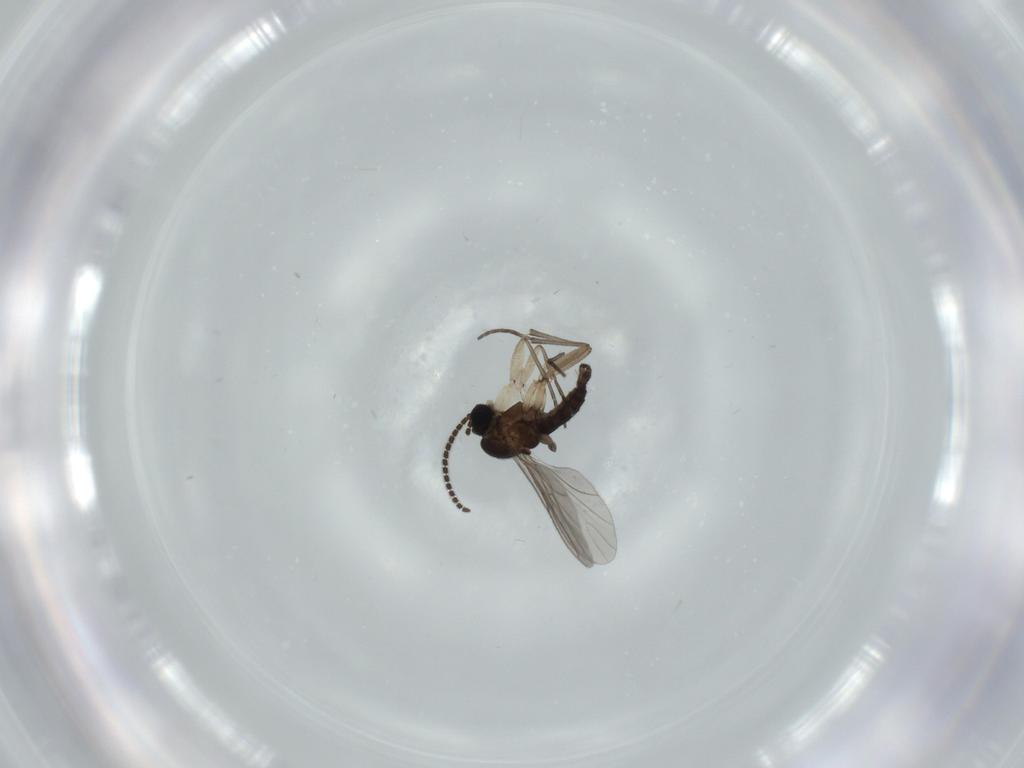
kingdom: Animalia
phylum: Arthropoda
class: Insecta
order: Diptera
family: Sciaridae
